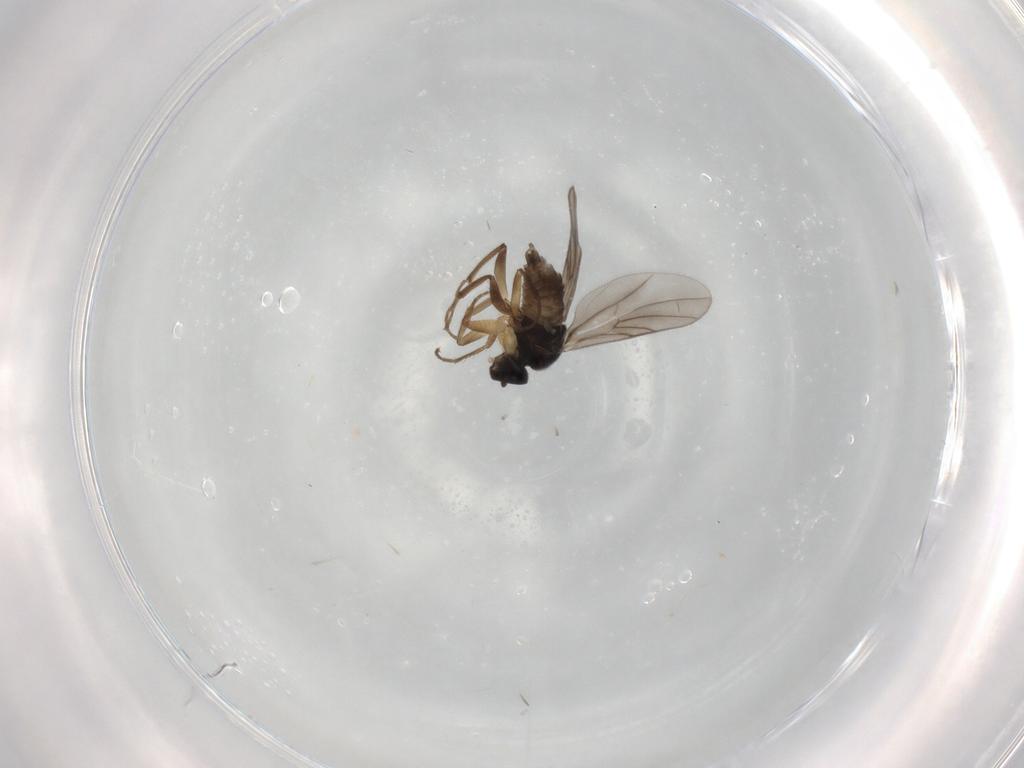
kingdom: Animalia
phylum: Arthropoda
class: Insecta
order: Diptera
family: Hybotidae
